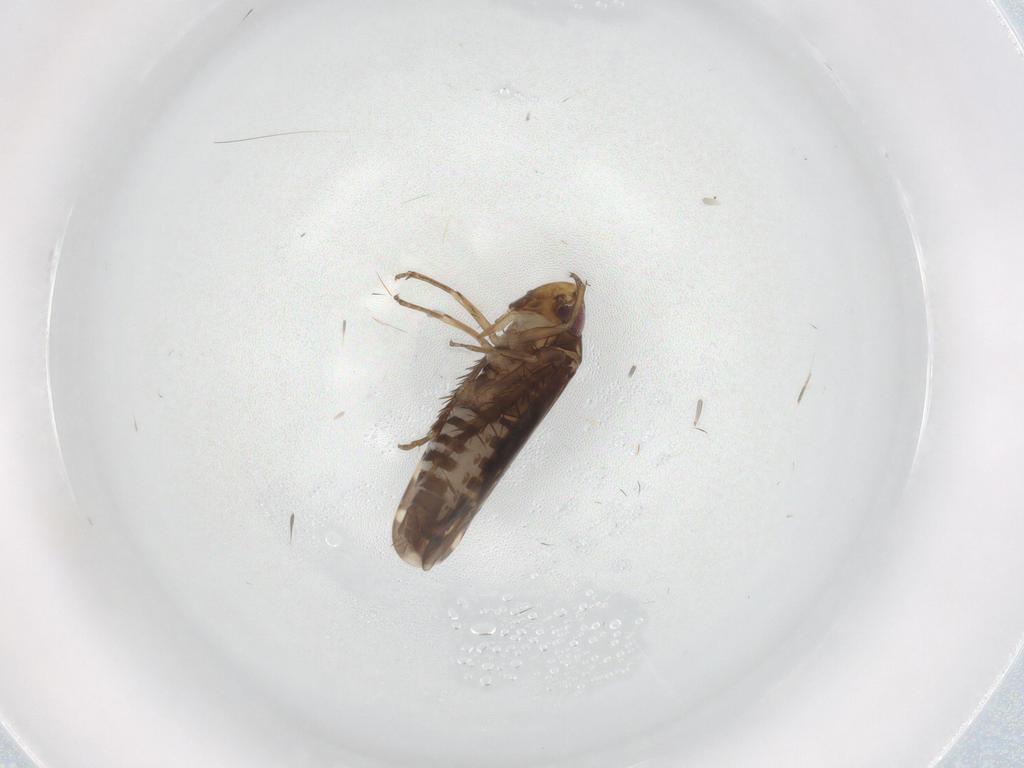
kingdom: Animalia
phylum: Arthropoda
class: Insecta
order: Hemiptera
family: Cicadellidae
